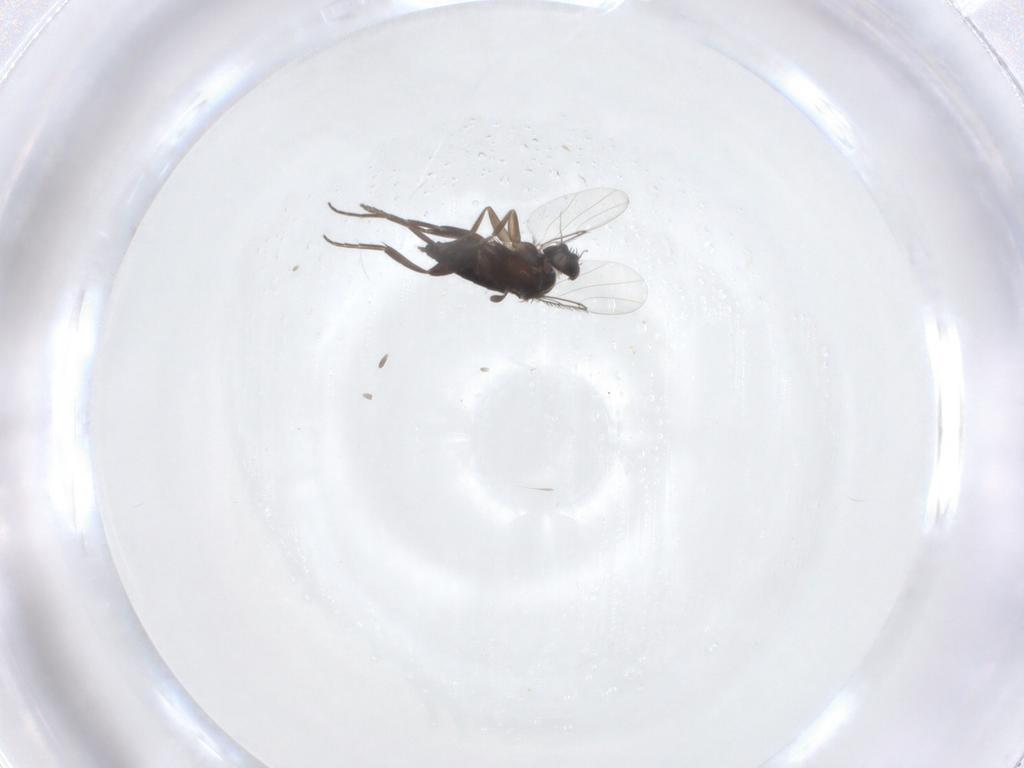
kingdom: Animalia
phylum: Arthropoda
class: Insecta
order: Diptera
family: Phoridae
